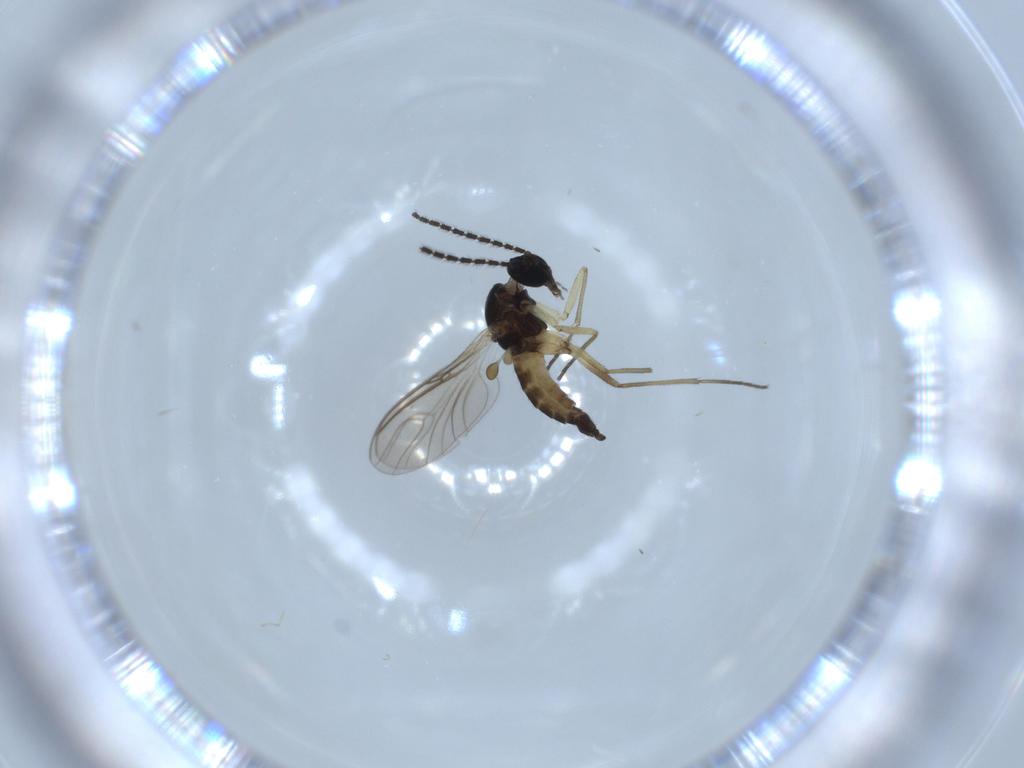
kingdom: Animalia
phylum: Arthropoda
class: Insecta
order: Diptera
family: Sciaridae
